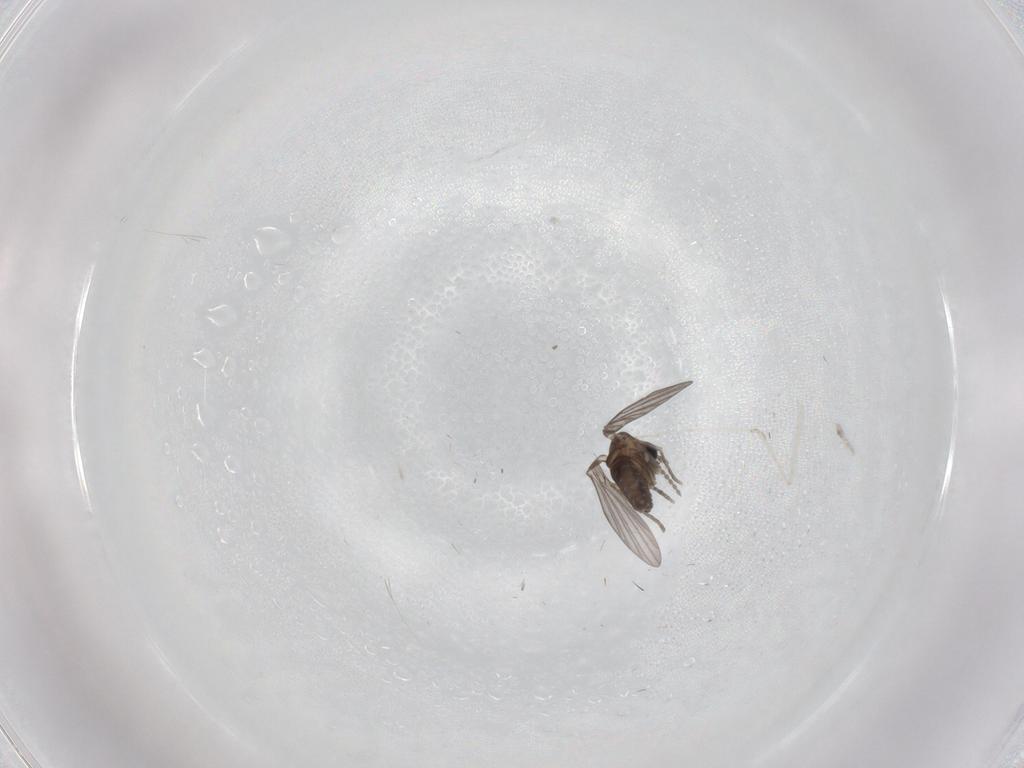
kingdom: Animalia
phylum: Arthropoda
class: Insecta
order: Diptera
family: Psychodidae
